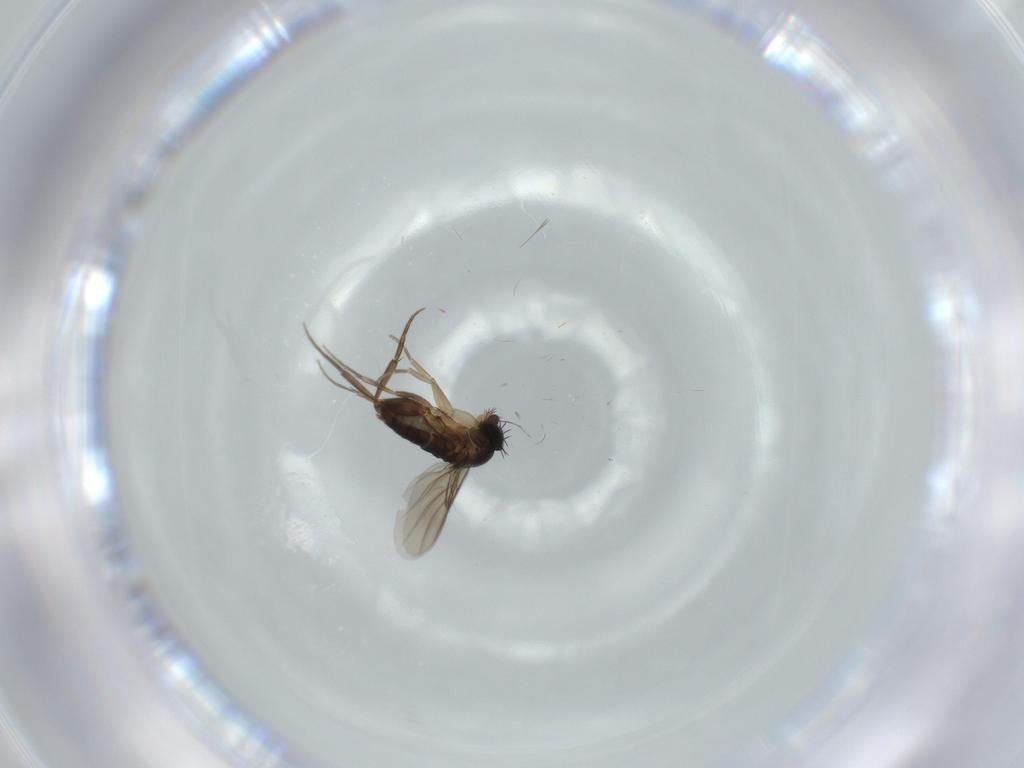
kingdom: Animalia
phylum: Arthropoda
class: Insecta
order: Diptera
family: Phoridae
